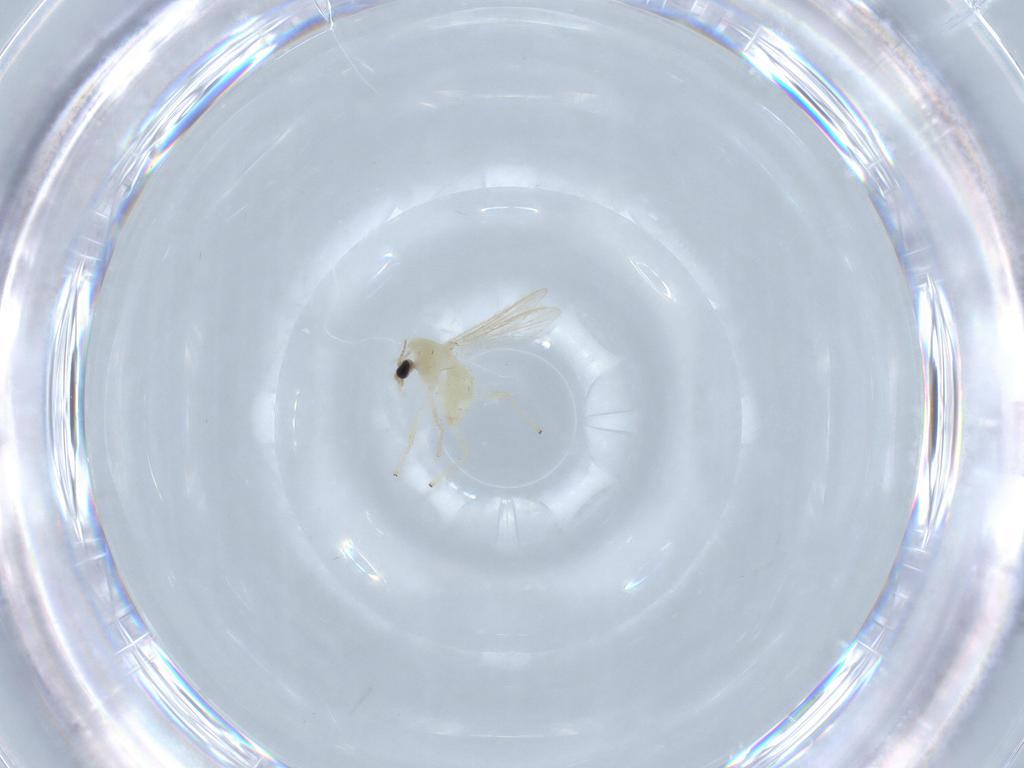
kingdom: Animalia
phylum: Arthropoda
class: Insecta
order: Diptera
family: Chironomidae
